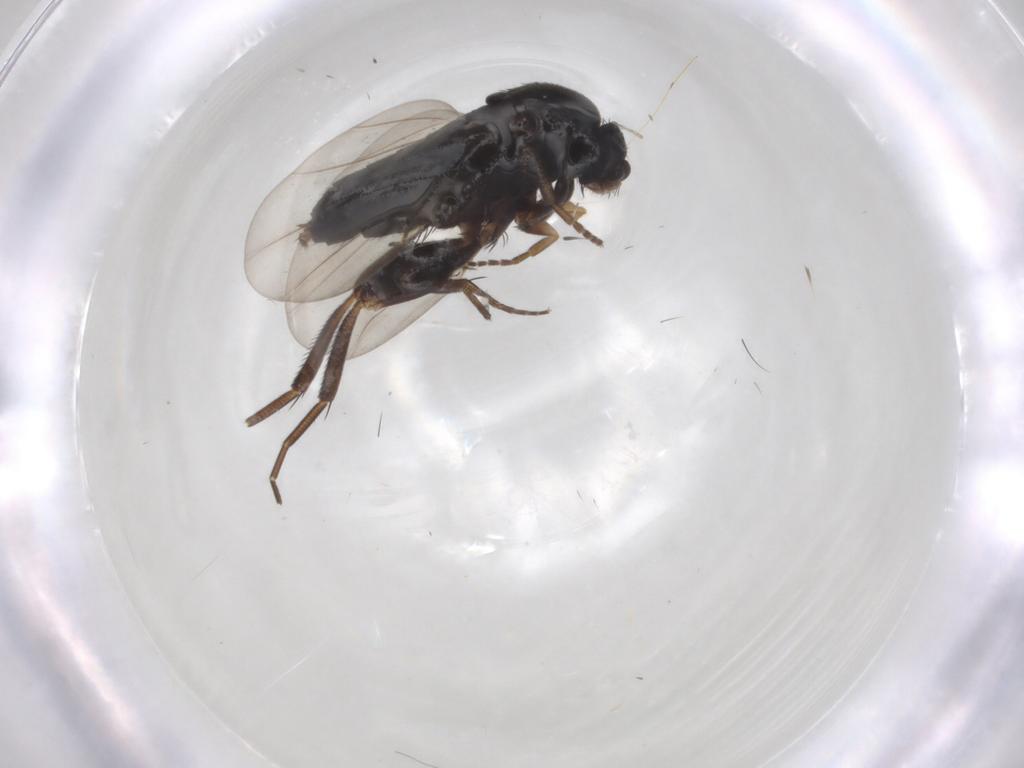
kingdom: Animalia
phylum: Arthropoda
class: Insecta
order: Diptera
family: Phoridae
